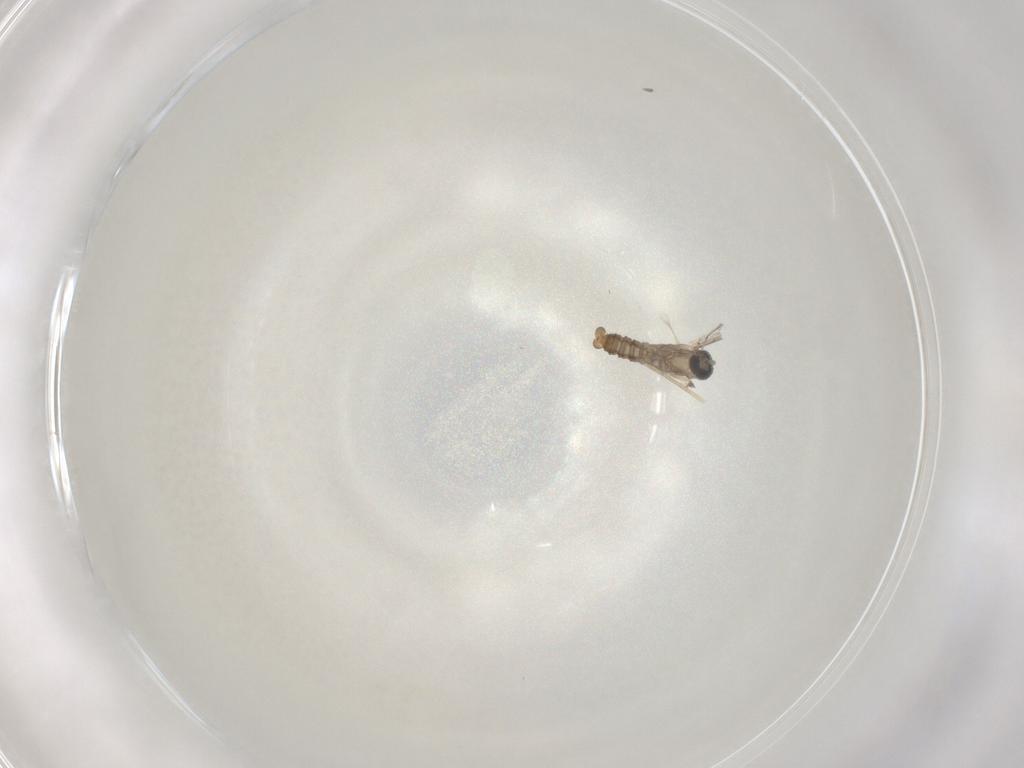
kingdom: Animalia
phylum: Arthropoda
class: Insecta
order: Diptera
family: Cecidomyiidae
